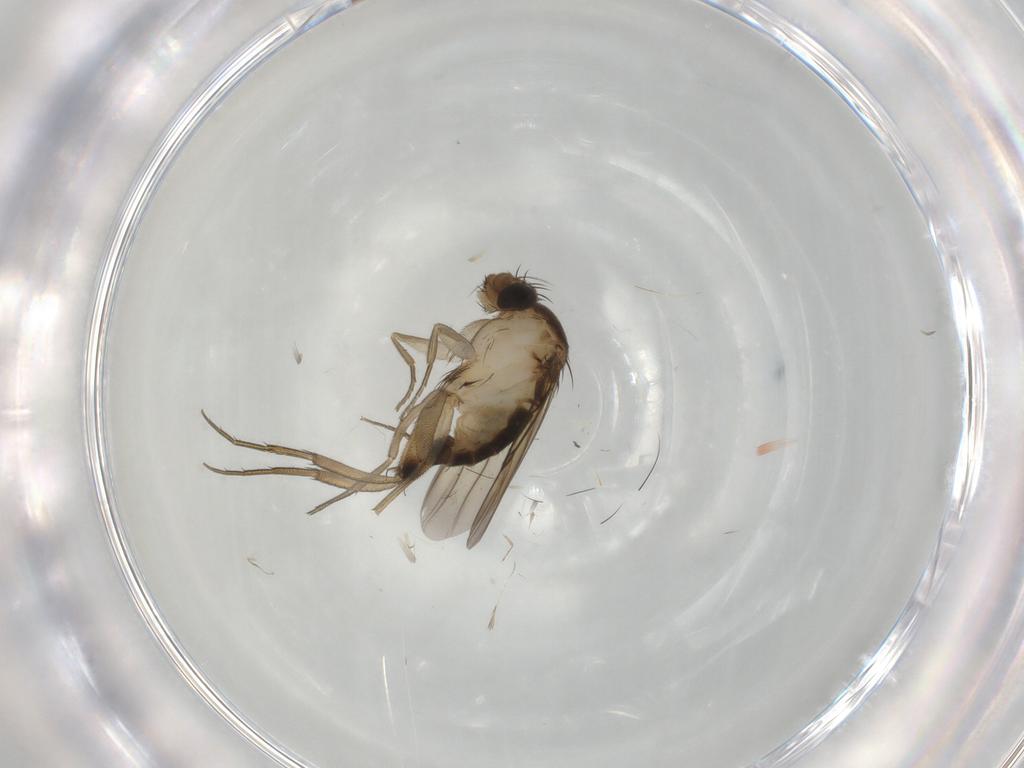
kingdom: Animalia
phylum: Arthropoda
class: Insecta
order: Diptera
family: Phoridae
